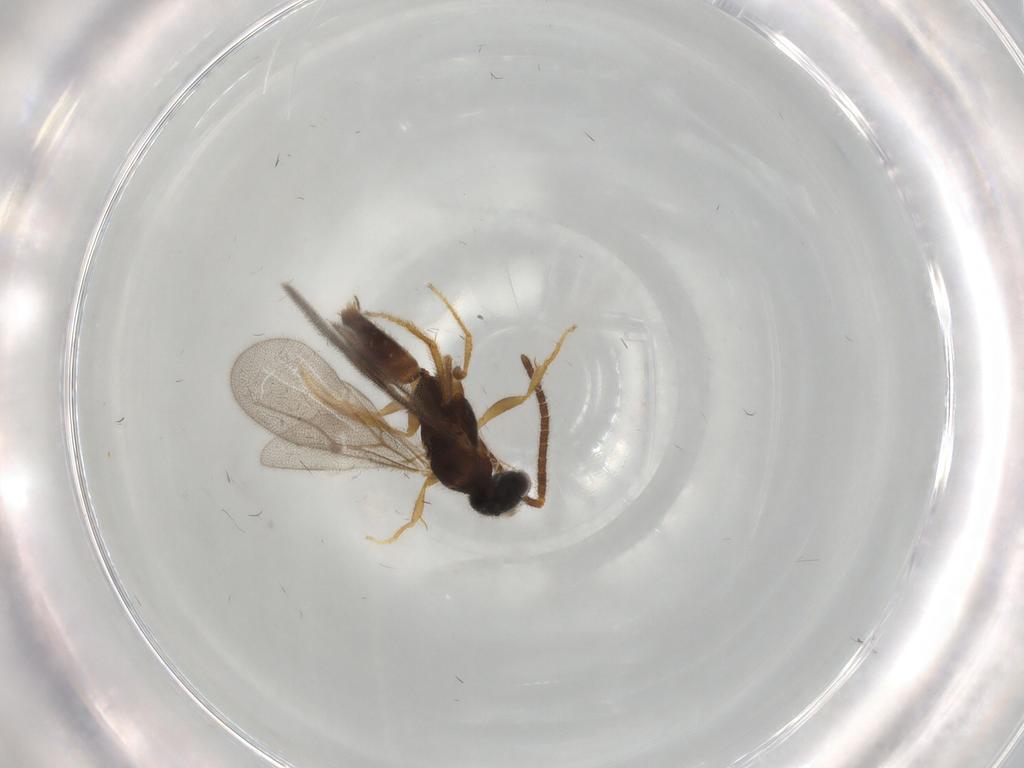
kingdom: Animalia
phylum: Arthropoda
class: Insecta
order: Hymenoptera
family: Bethylidae
